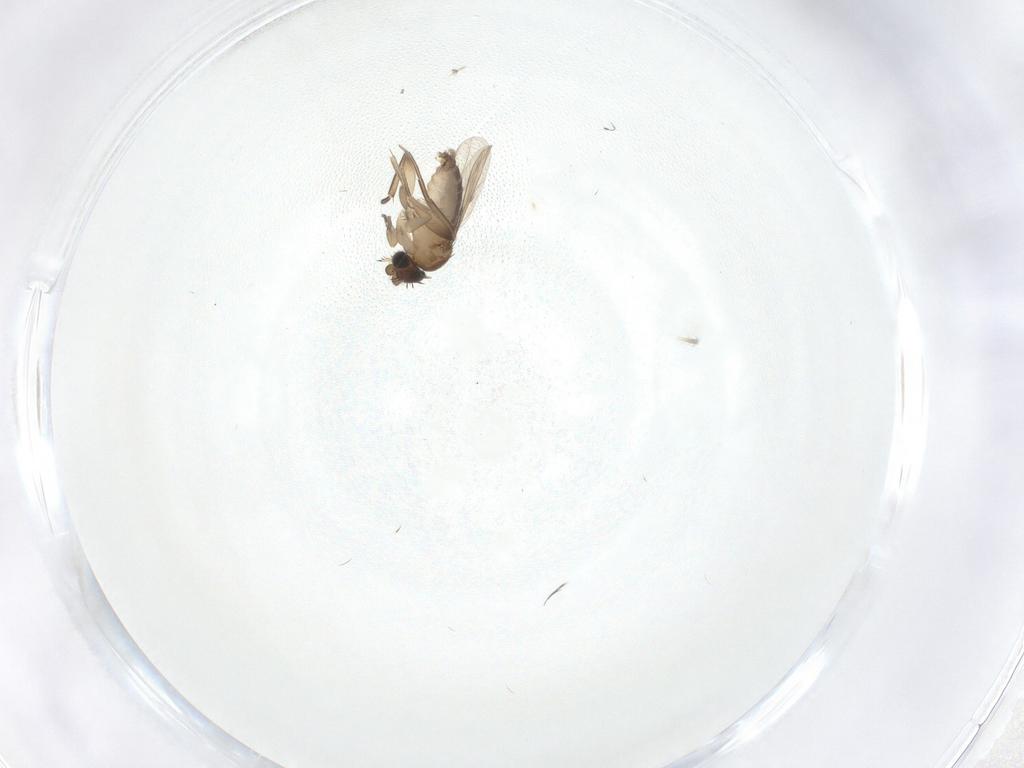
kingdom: Animalia
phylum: Arthropoda
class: Insecta
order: Diptera
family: Phoridae
